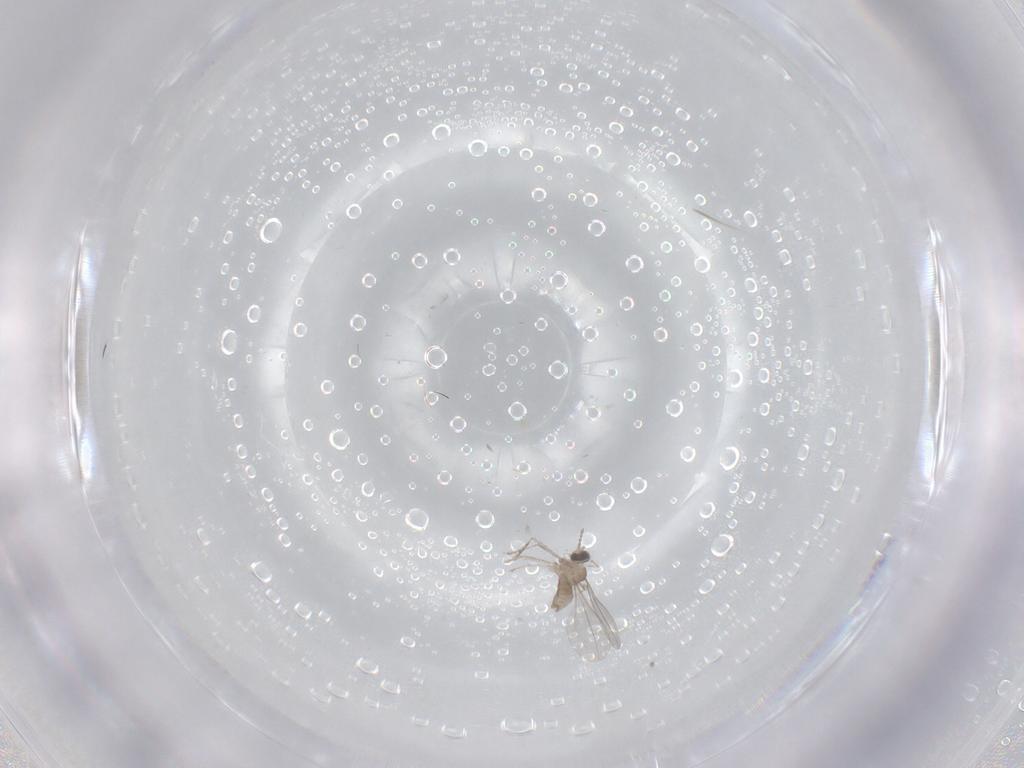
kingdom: Animalia
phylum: Arthropoda
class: Insecta
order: Diptera
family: Cecidomyiidae
